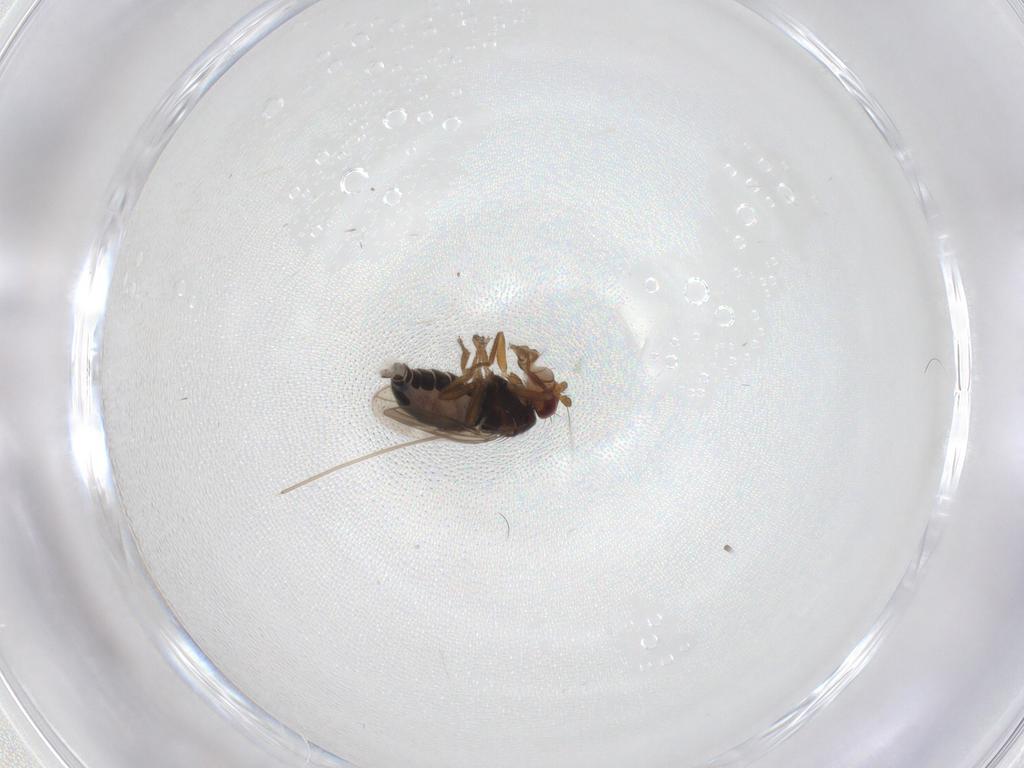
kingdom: Animalia
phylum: Arthropoda
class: Insecta
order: Diptera
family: Sphaeroceridae
